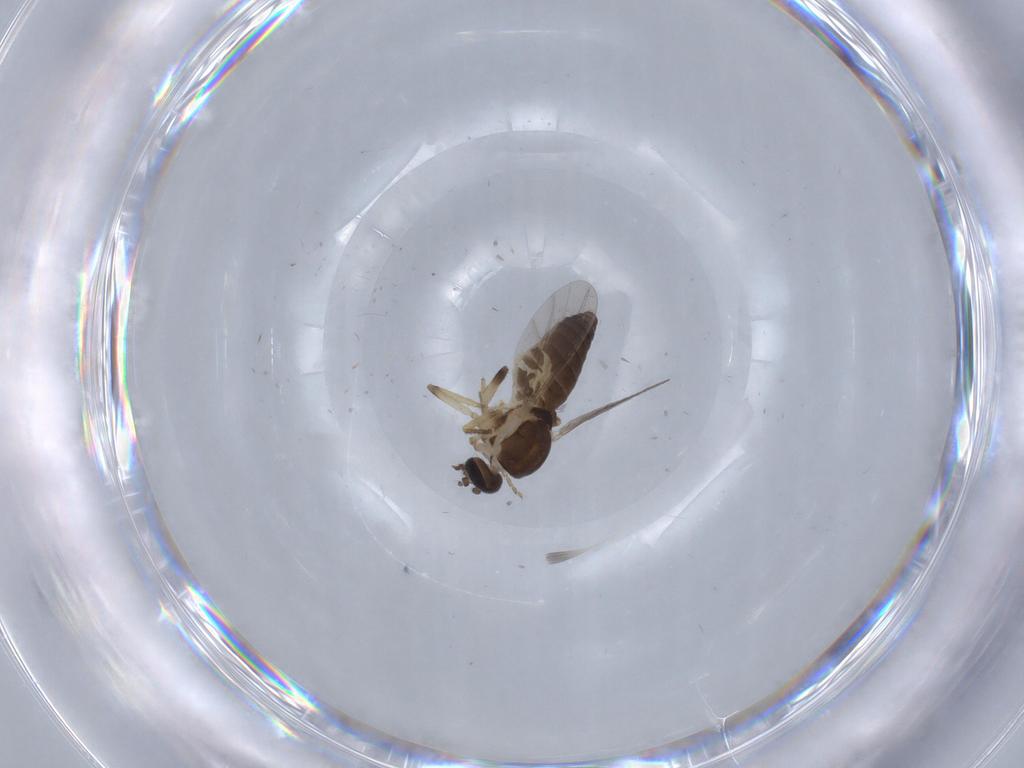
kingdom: Animalia
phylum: Arthropoda
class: Insecta
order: Diptera
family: Ceratopogonidae
